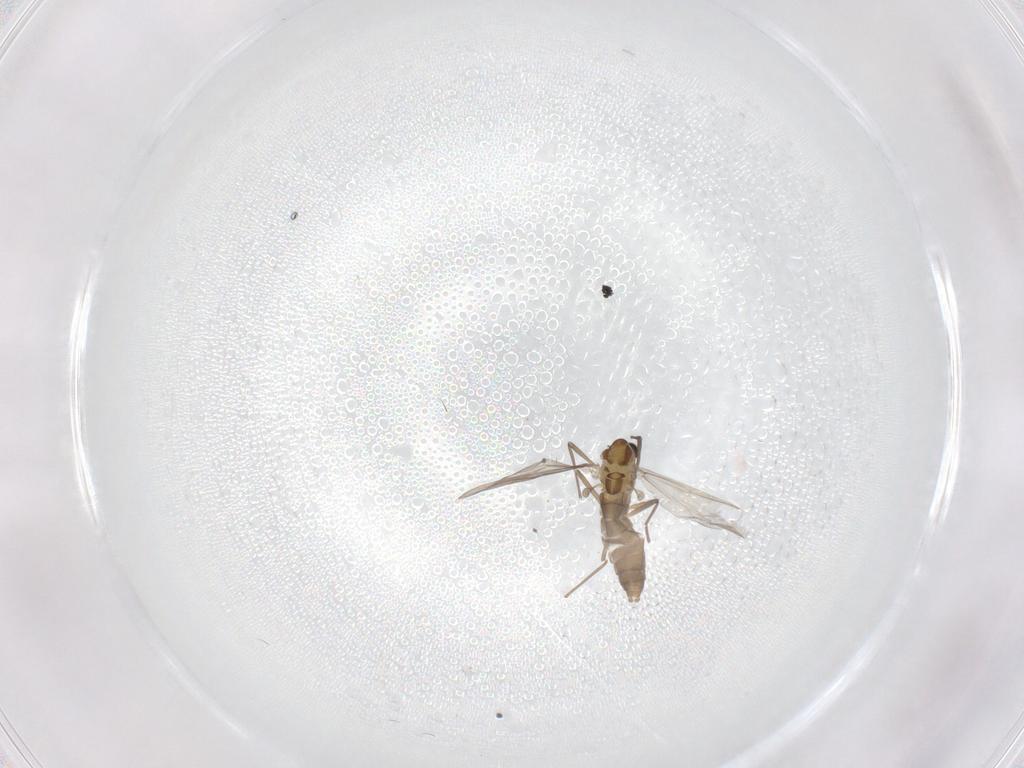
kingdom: Animalia
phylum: Arthropoda
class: Insecta
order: Diptera
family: Chironomidae
